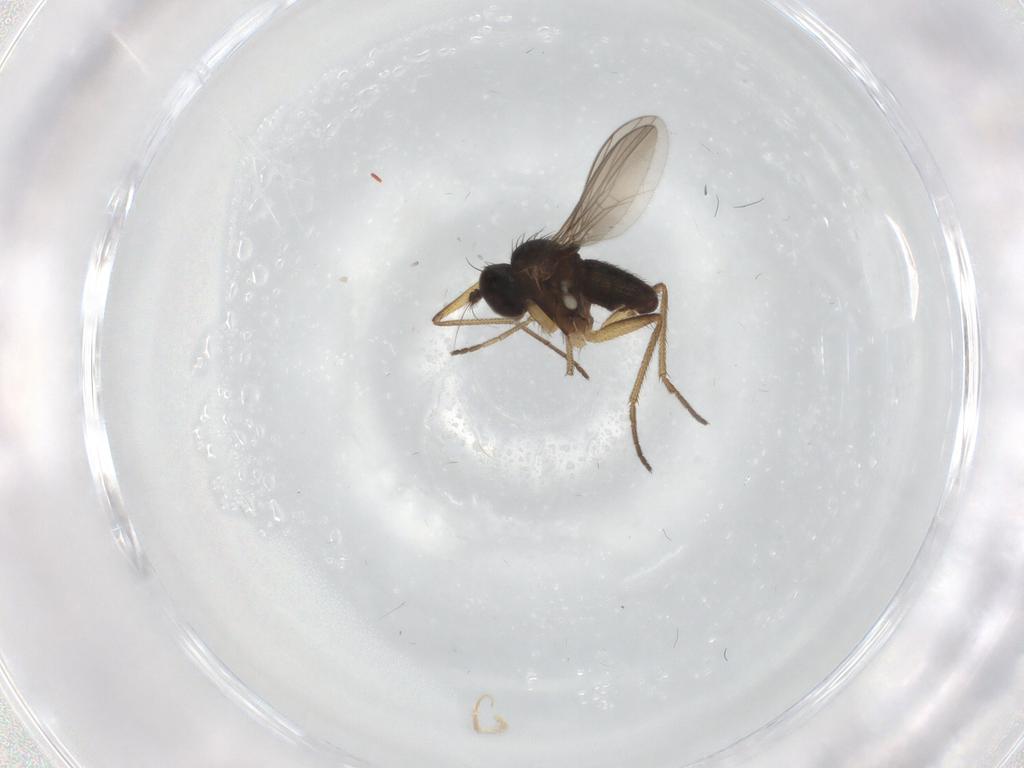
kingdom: Animalia
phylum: Arthropoda
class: Insecta
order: Diptera
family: Dolichopodidae
